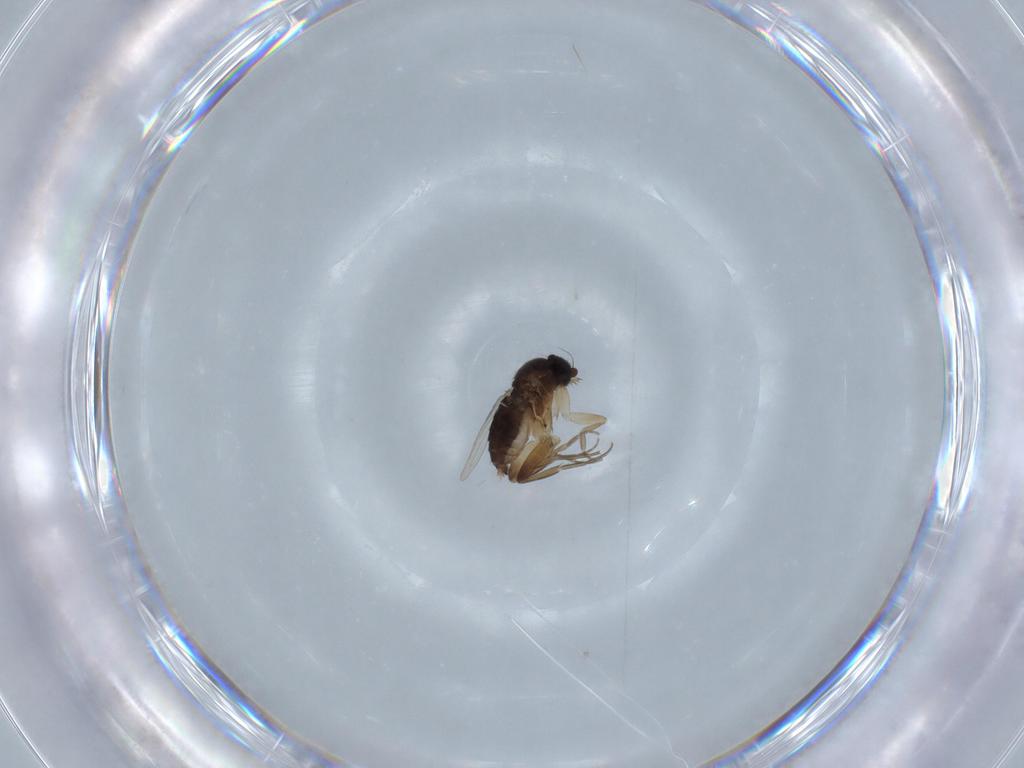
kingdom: Animalia
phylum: Arthropoda
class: Insecta
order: Diptera
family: Phoridae
